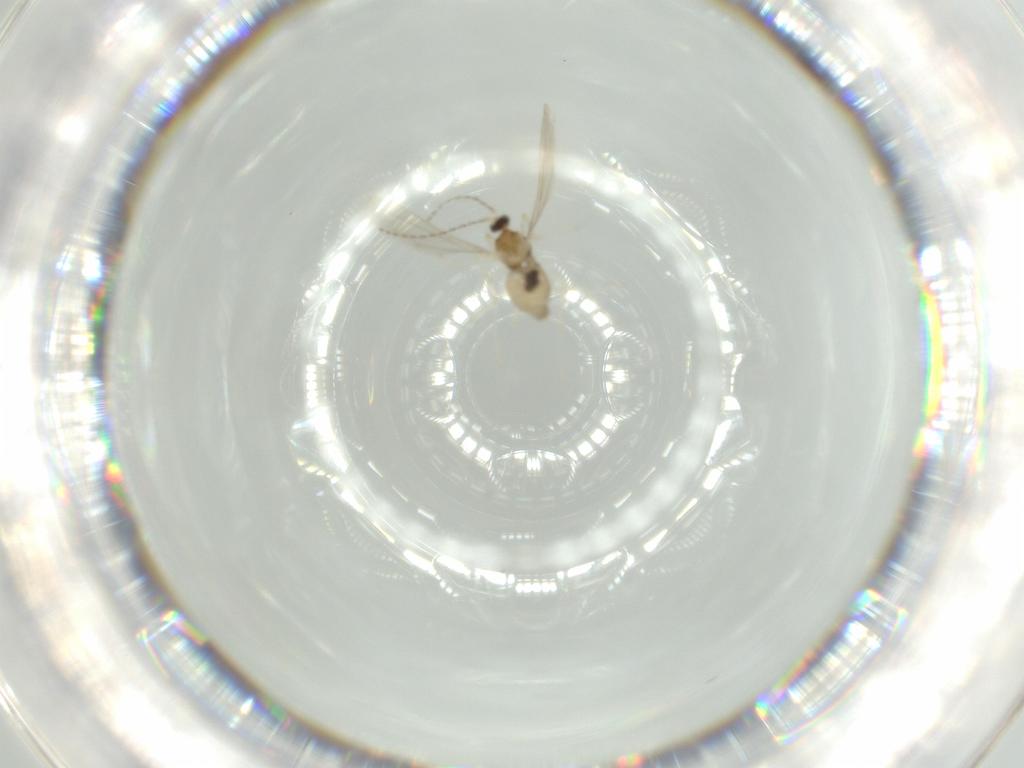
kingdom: Animalia
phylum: Arthropoda
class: Insecta
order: Diptera
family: Cecidomyiidae
